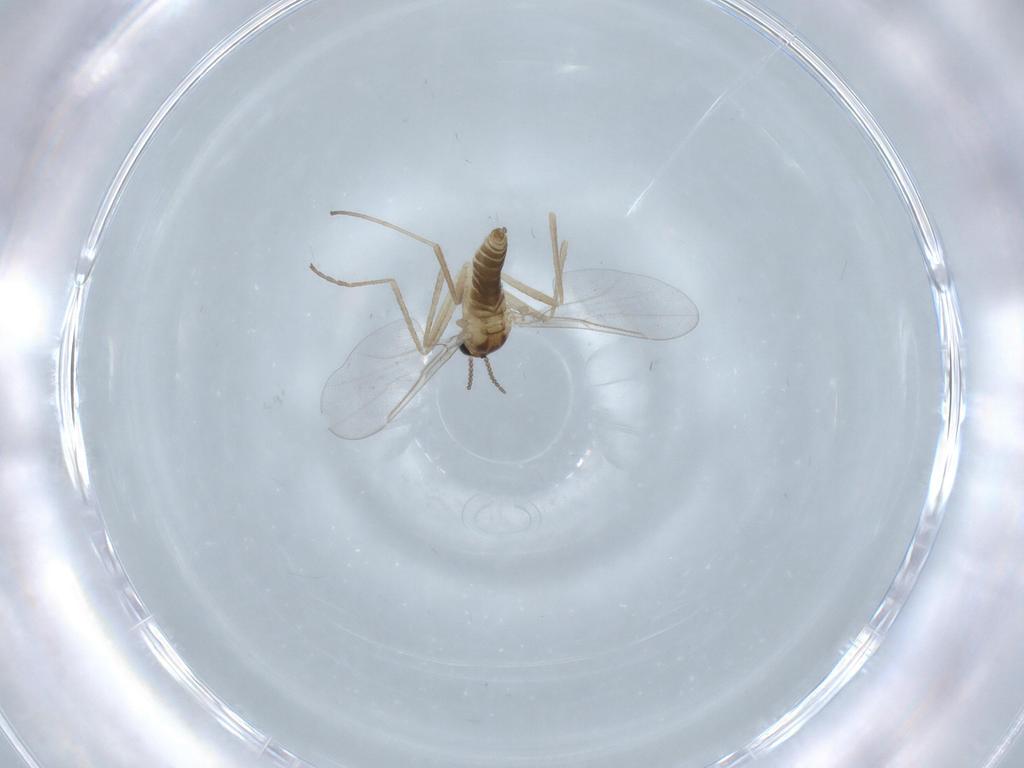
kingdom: Animalia
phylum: Arthropoda
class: Insecta
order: Diptera
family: Cecidomyiidae
